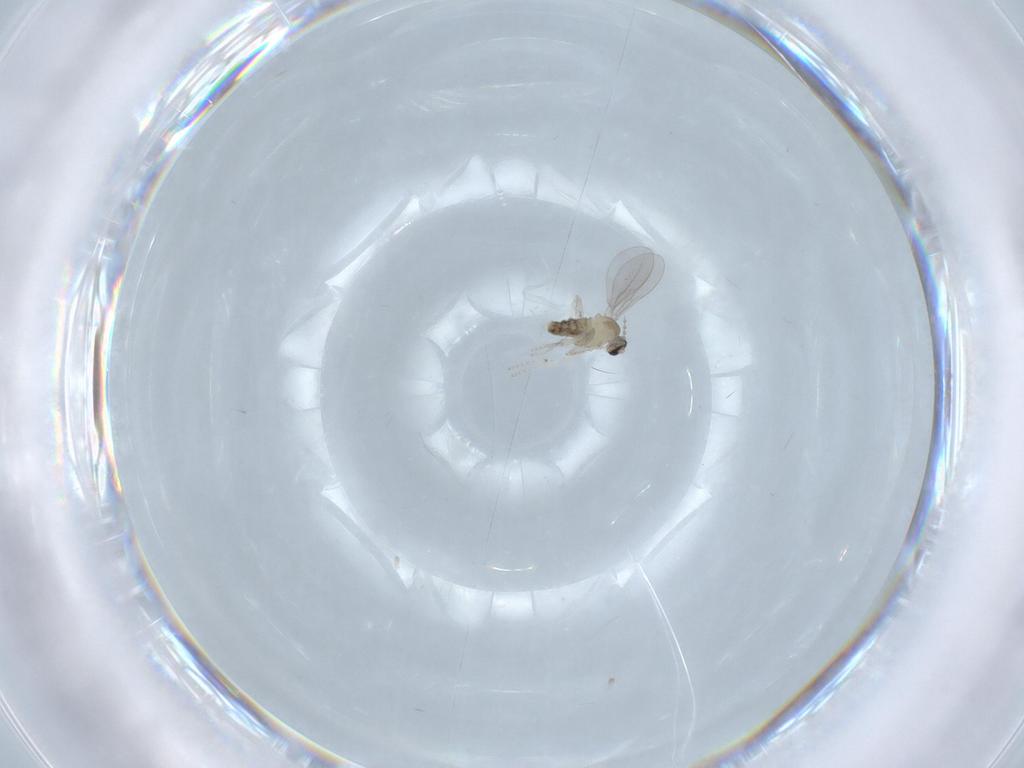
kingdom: Animalia
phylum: Arthropoda
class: Insecta
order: Diptera
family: Cecidomyiidae
